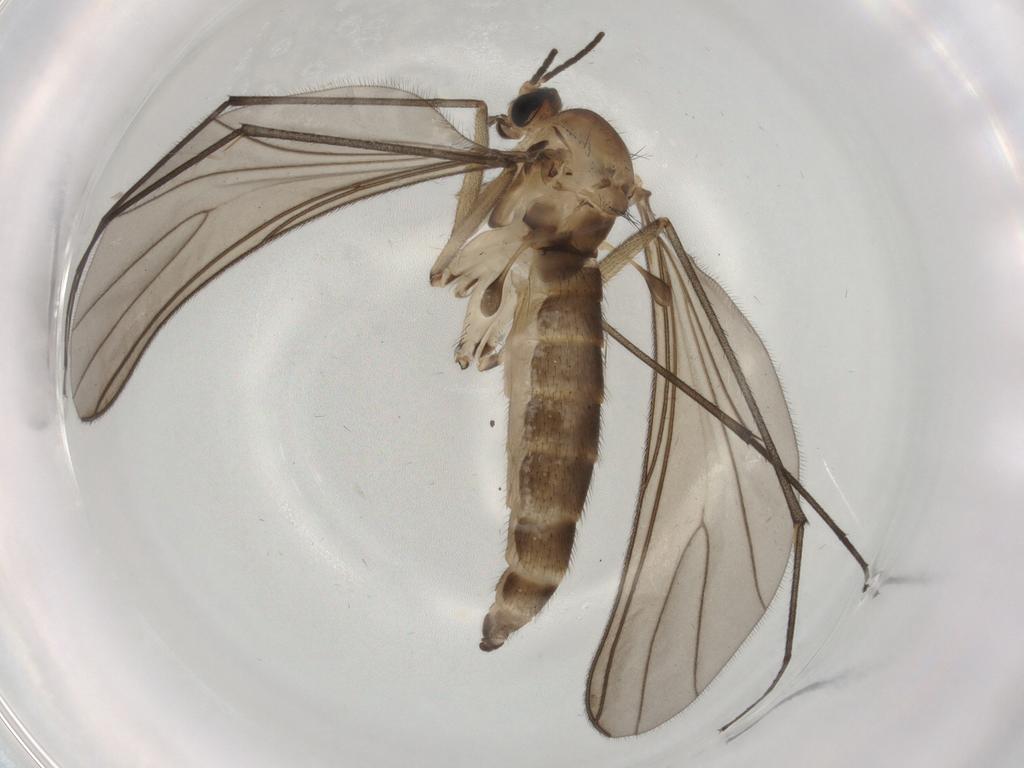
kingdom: Animalia
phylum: Arthropoda
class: Insecta
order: Diptera
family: Sciaridae
